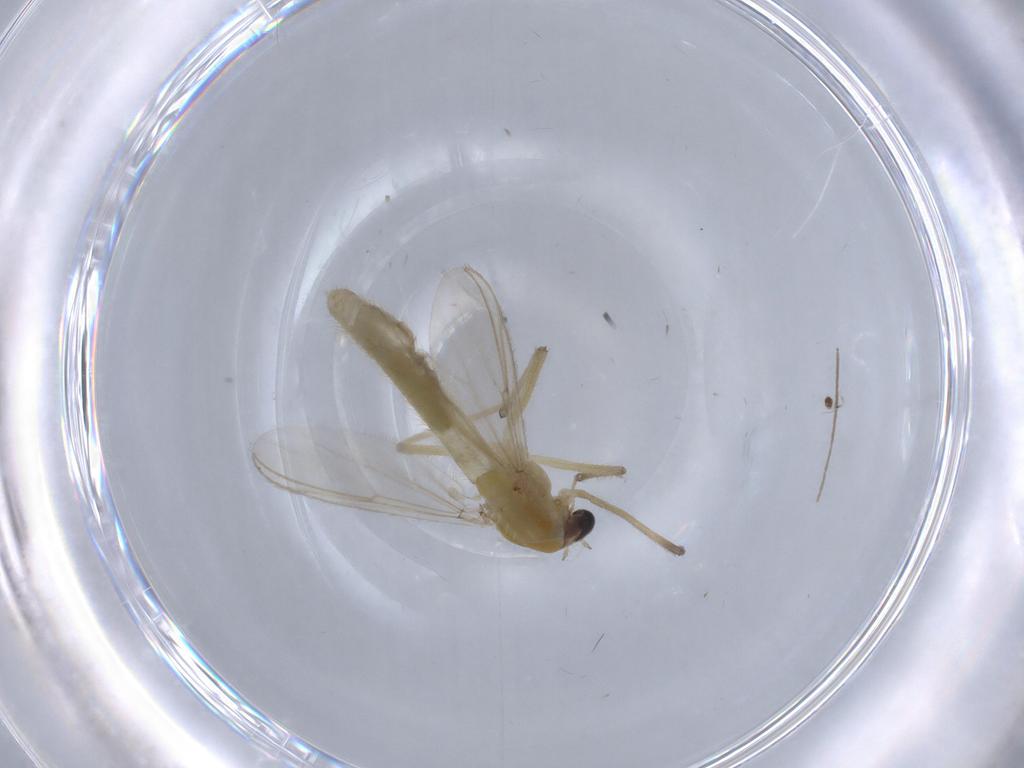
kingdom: Animalia
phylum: Arthropoda
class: Insecta
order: Diptera
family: Chironomidae
